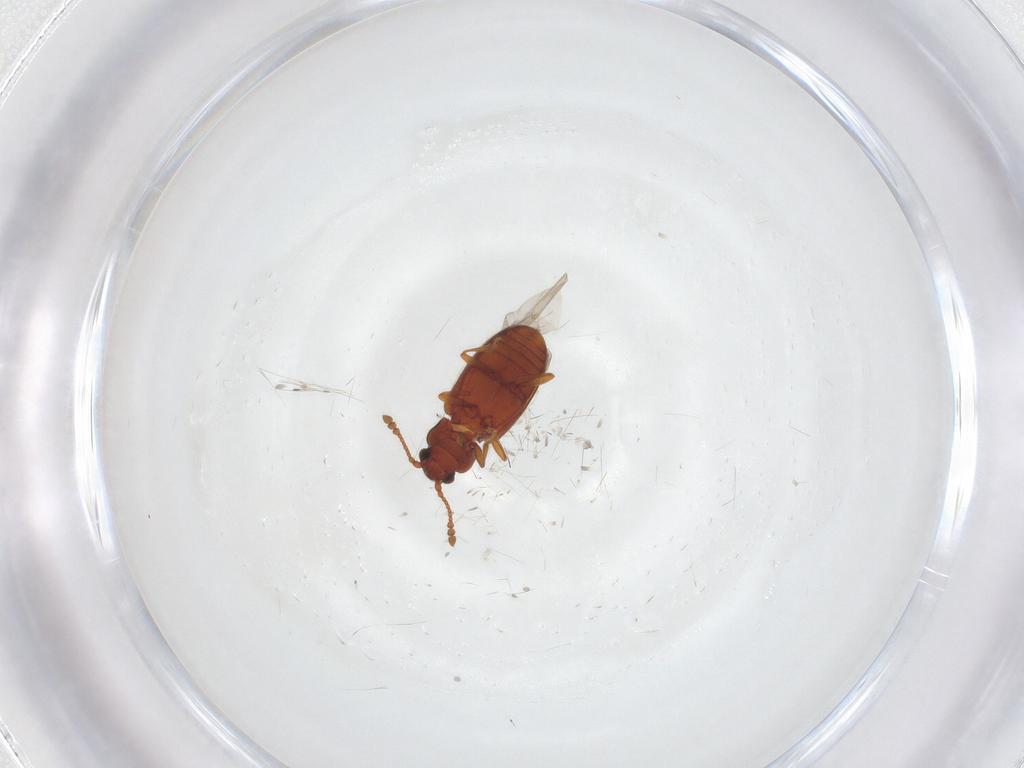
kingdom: Animalia
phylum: Arthropoda
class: Insecta
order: Coleoptera
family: Cryptophagidae
